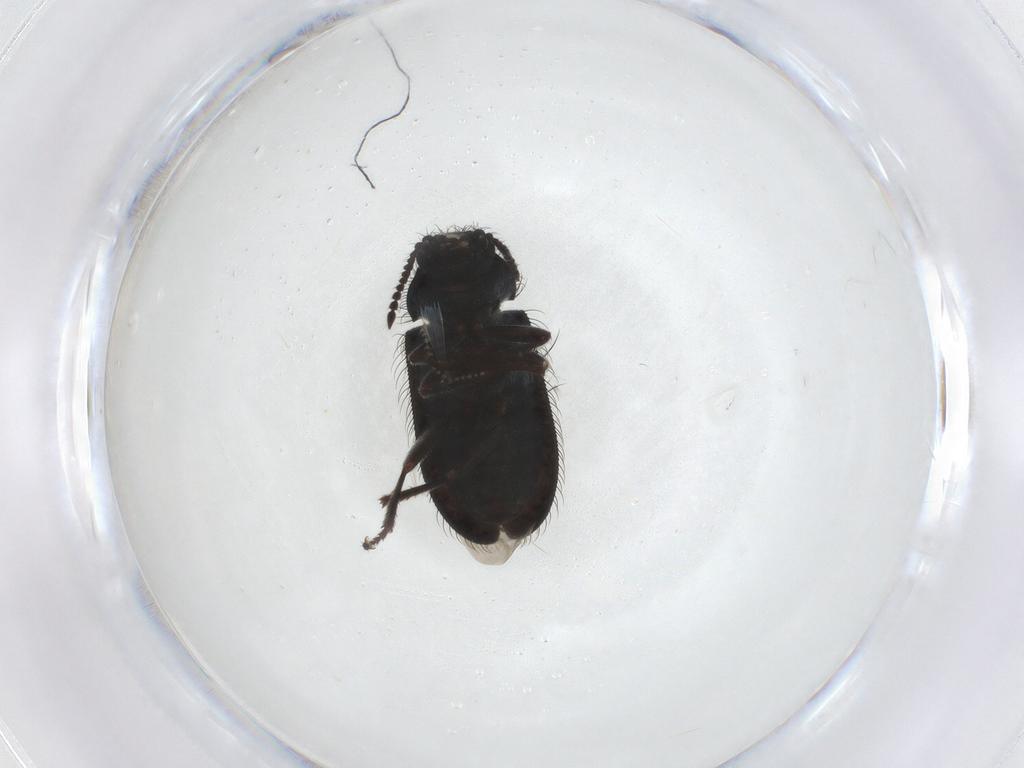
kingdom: Animalia
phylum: Arthropoda
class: Insecta
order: Coleoptera
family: Melyridae
